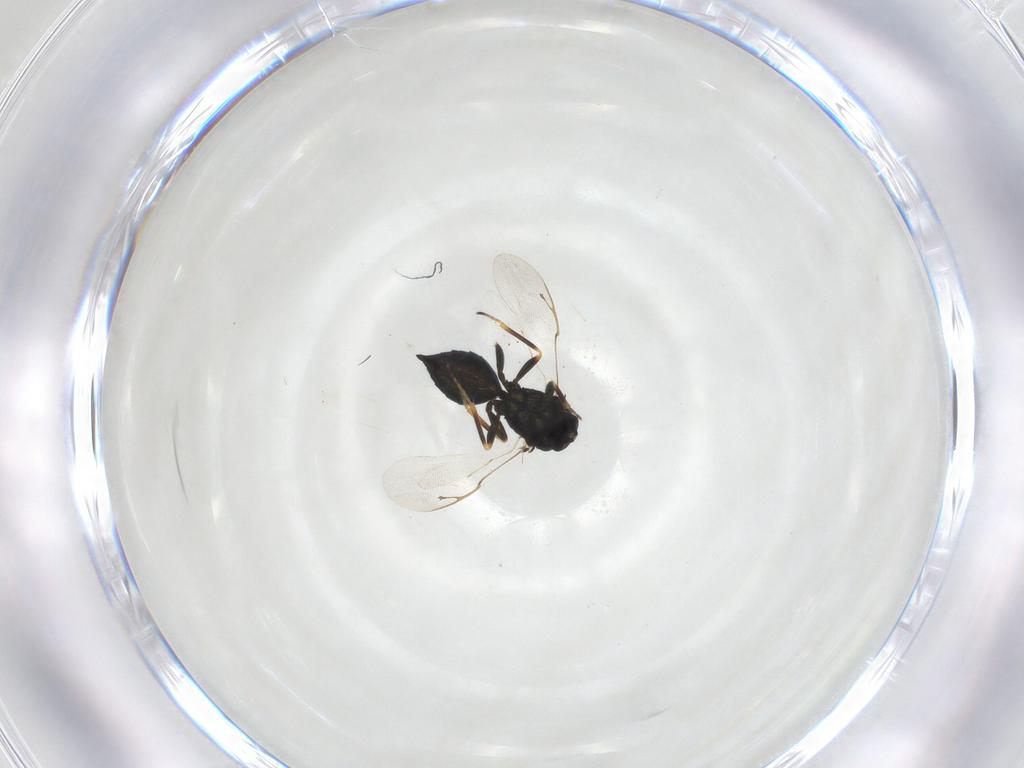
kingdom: Animalia
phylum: Arthropoda
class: Insecta
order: Hymenoptera
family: Pteromalidae
